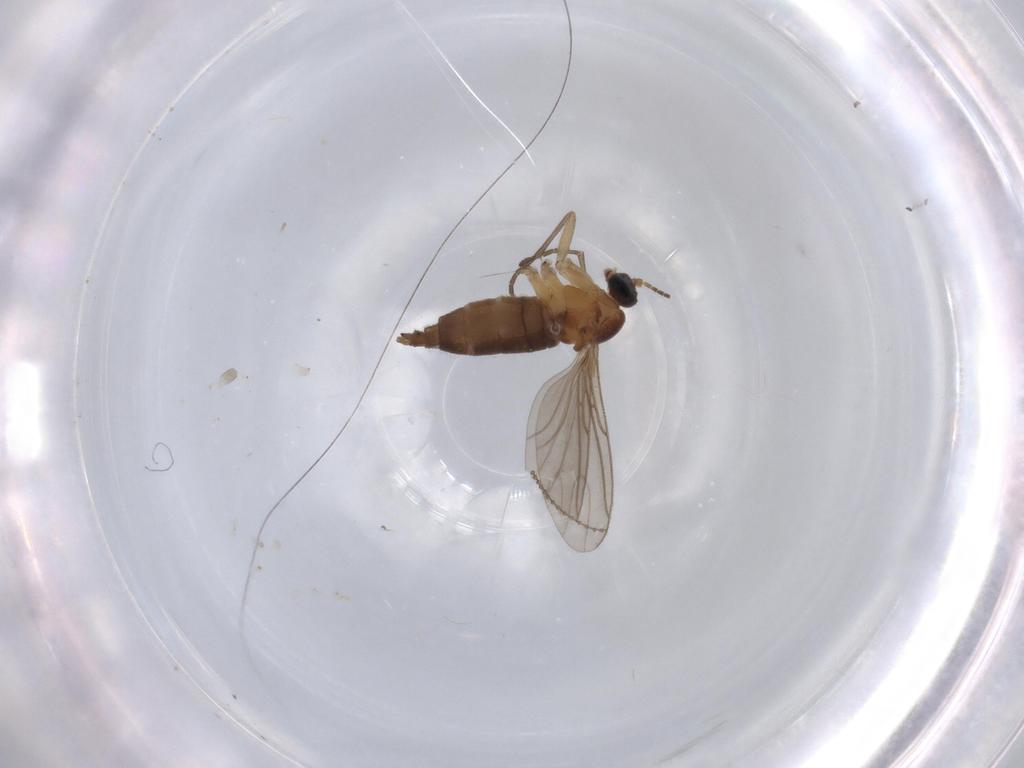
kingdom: Animalia
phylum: Arthropoda
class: Insecta
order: Diptera
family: Sciaridae
